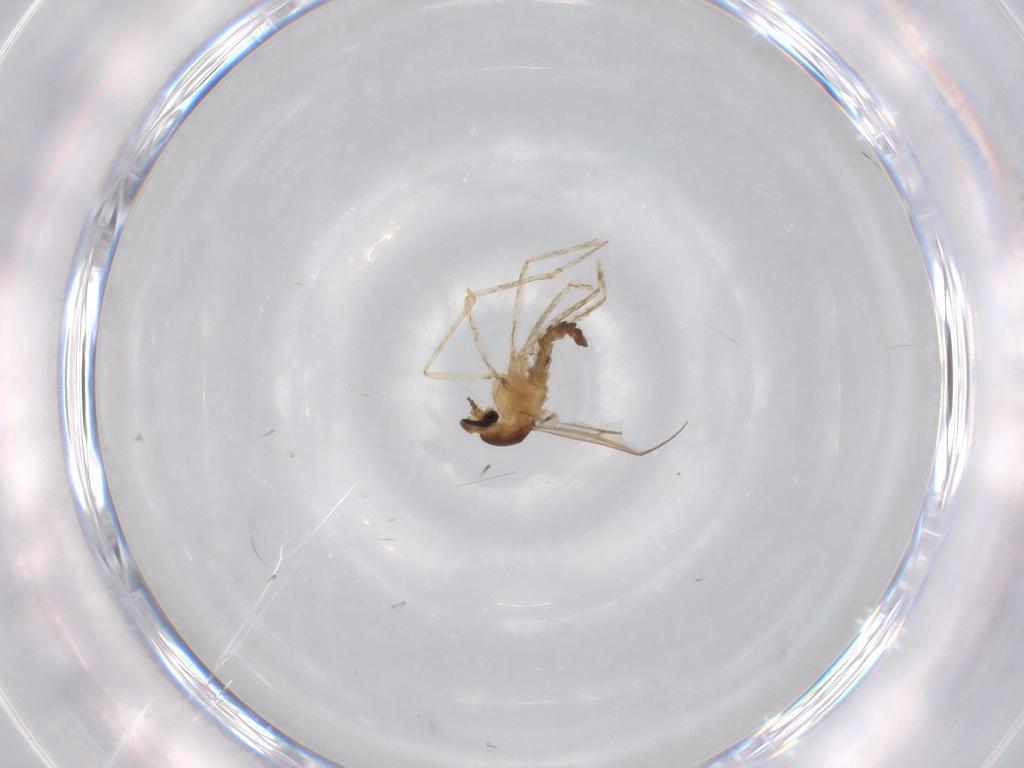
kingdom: Animalia
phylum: Arthropoda
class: Insecta
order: Diptera
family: Cecidomyiidae
